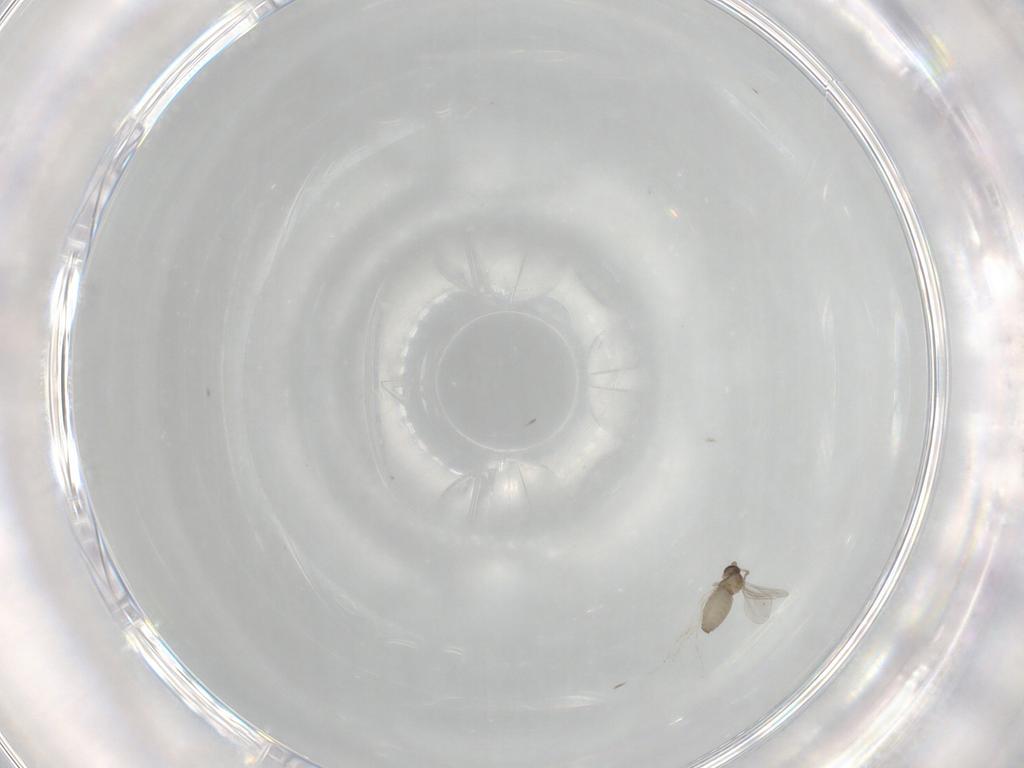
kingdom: Animalia
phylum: Arthropoda
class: Insecta
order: Diptera
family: Cecidomyiidae
